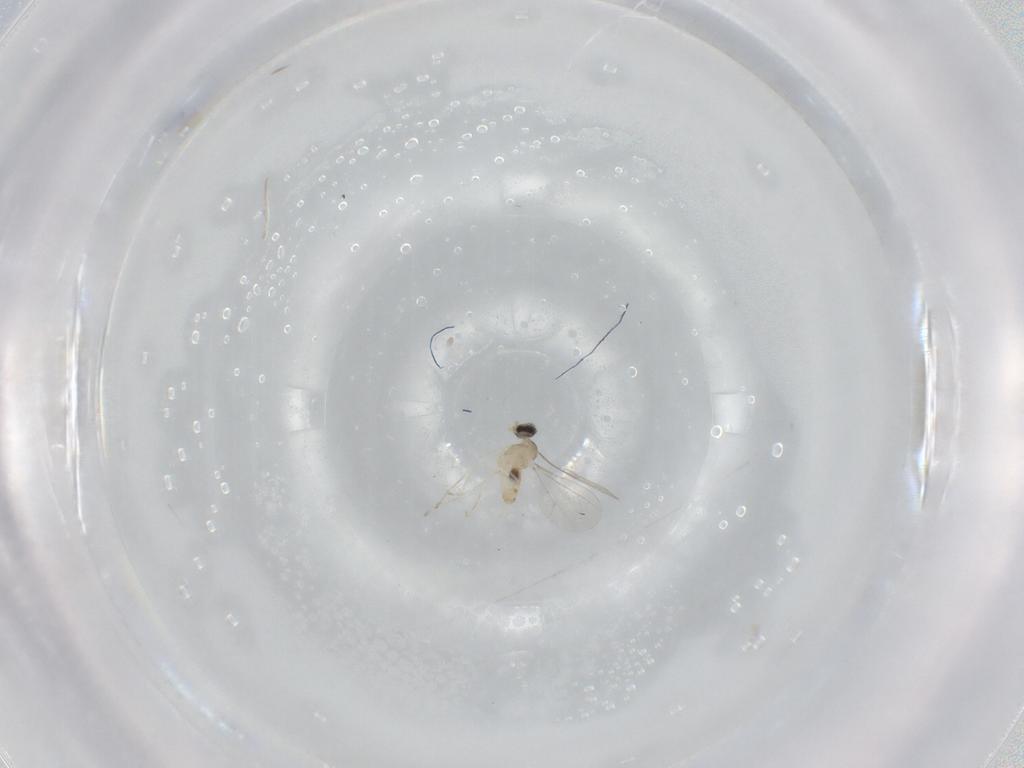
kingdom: Animalia
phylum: Arthropoda
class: Insecta
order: Diptera
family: Cecidomyiidae
